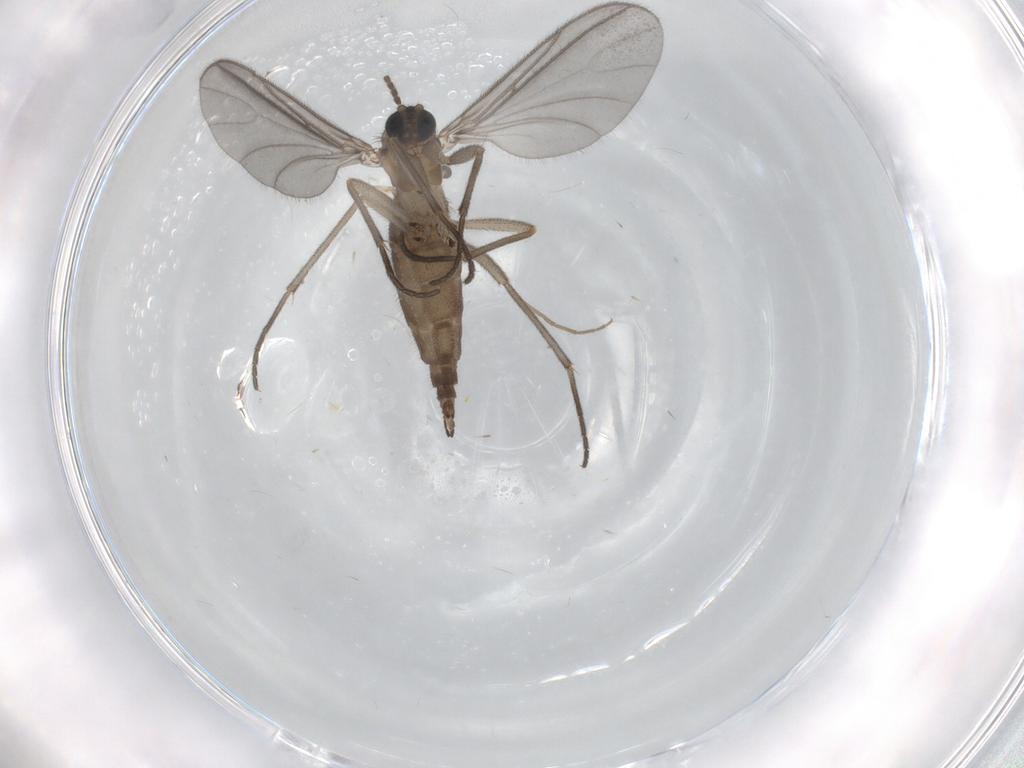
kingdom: Animalia
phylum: Arthropoda
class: Insecta
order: Diptera
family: Sciaridae
